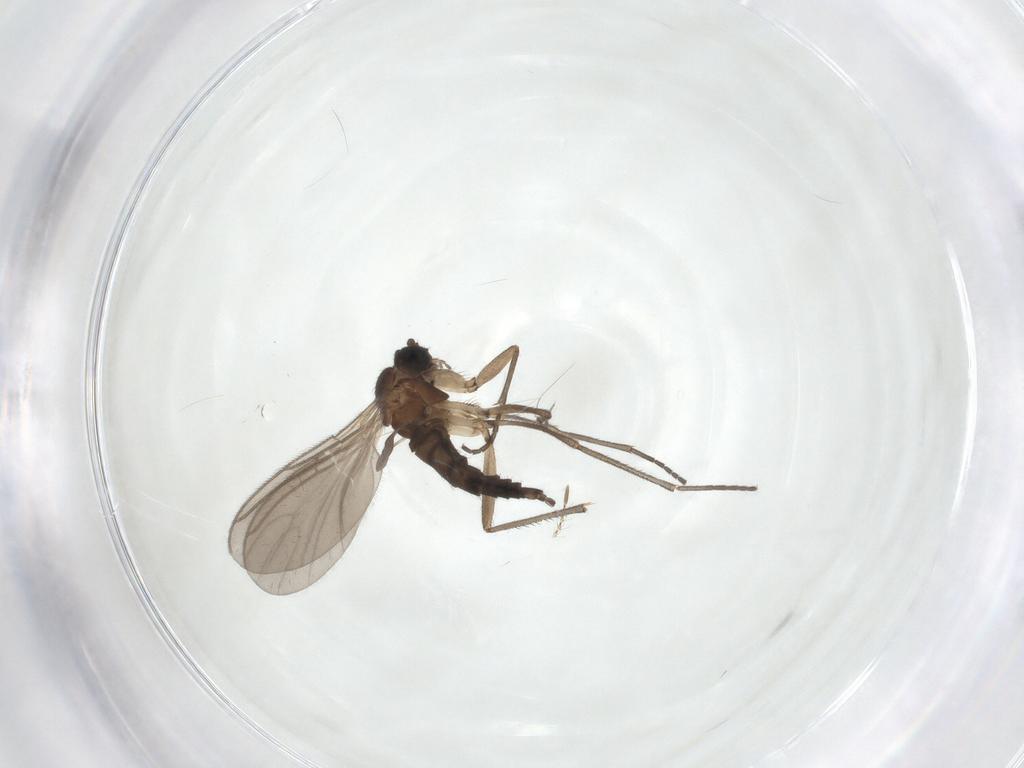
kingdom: Animalia
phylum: Arthropoda
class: Insecta
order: Diptera
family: Sciaridae
